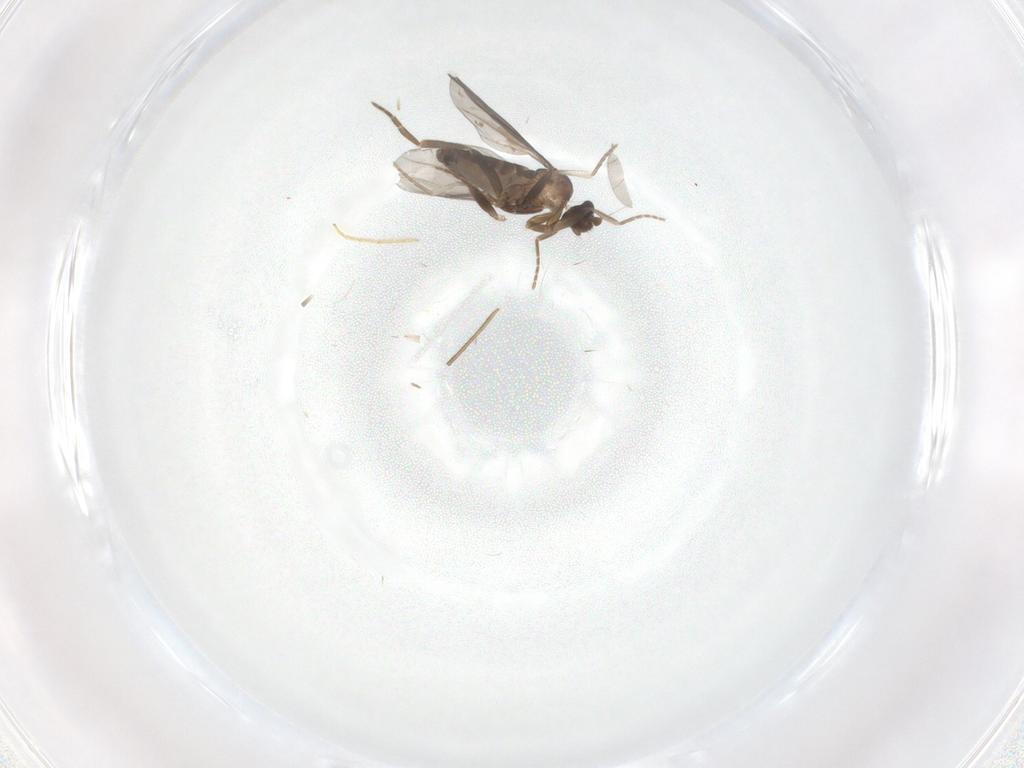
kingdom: Animalia
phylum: Arthropoda
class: Insecta
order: Diptera
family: Phoridae
